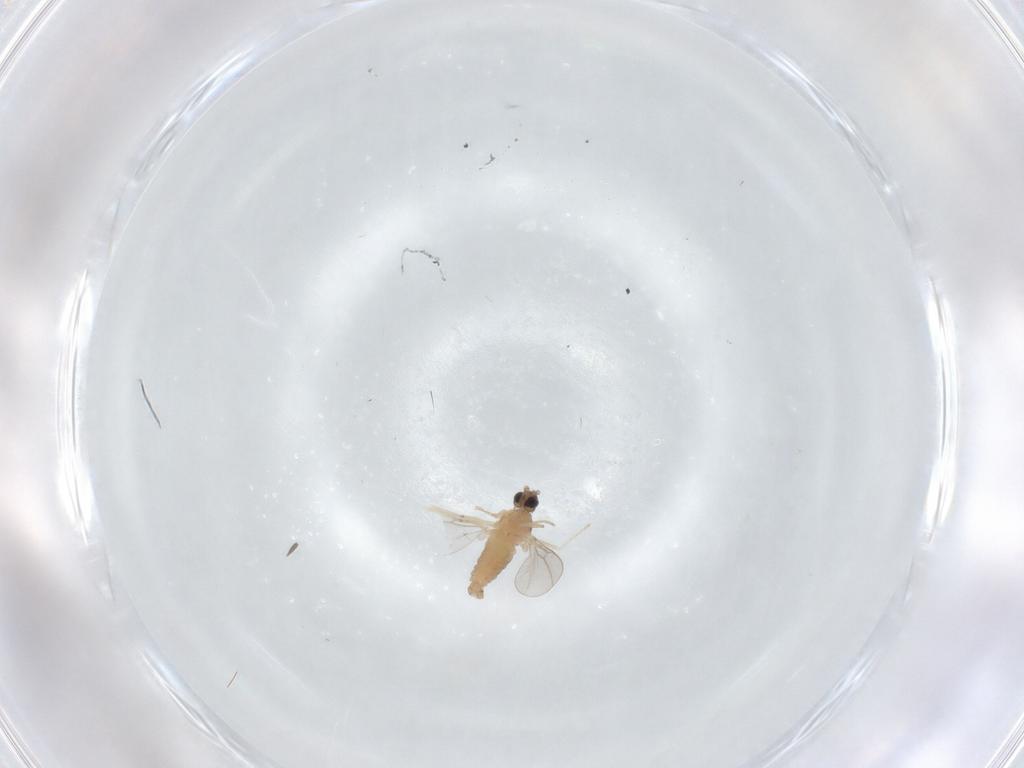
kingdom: Animalia
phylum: Arthropoda
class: Insecta
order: Diptera
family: Cecidomyiidae
